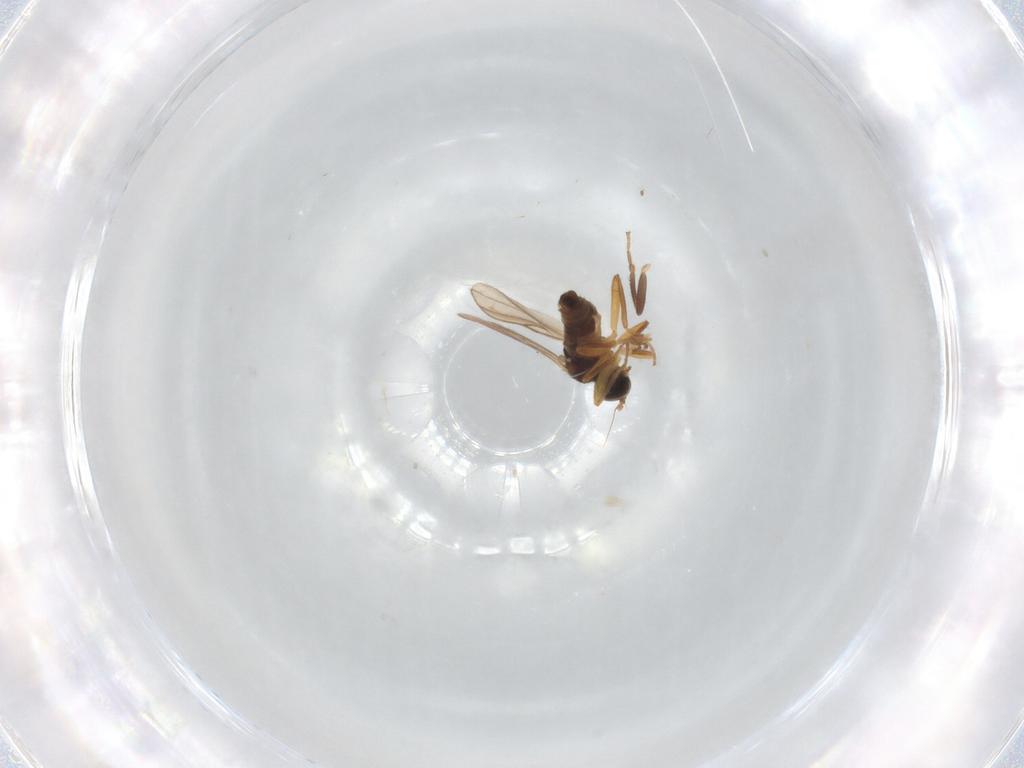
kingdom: Animalia
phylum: Arthropoda
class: Insecta
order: Diptera
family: Hybotidae
